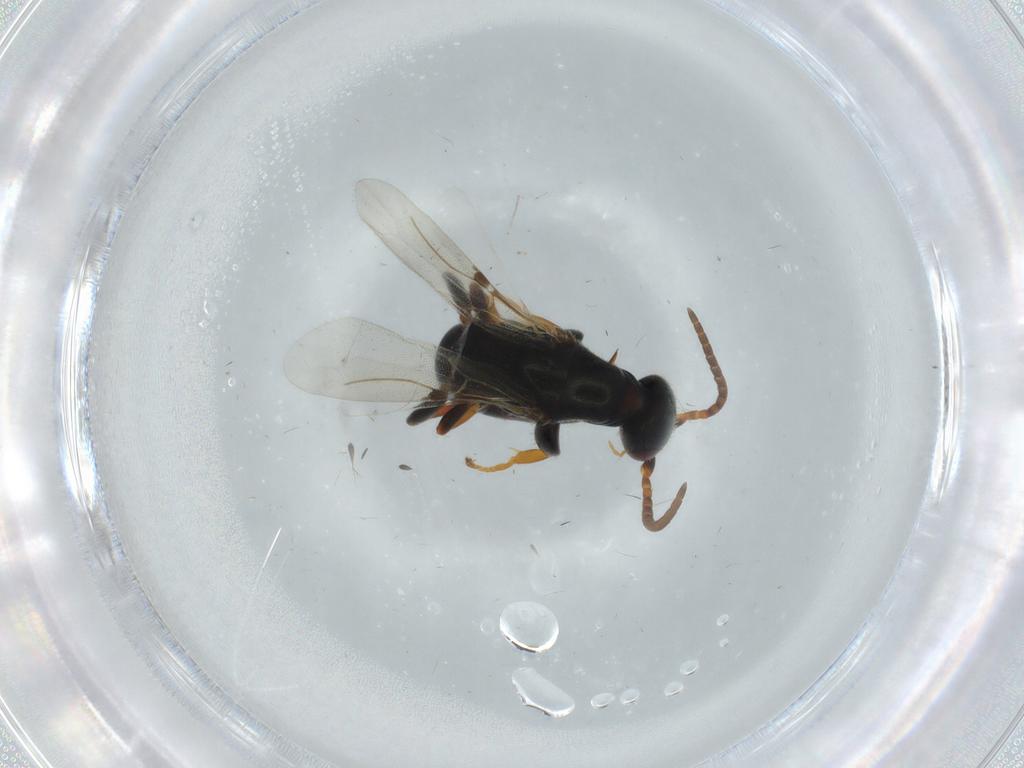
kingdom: Animalia
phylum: Arthropoda
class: Insecta
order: Hymenoptera
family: Bethylidae
